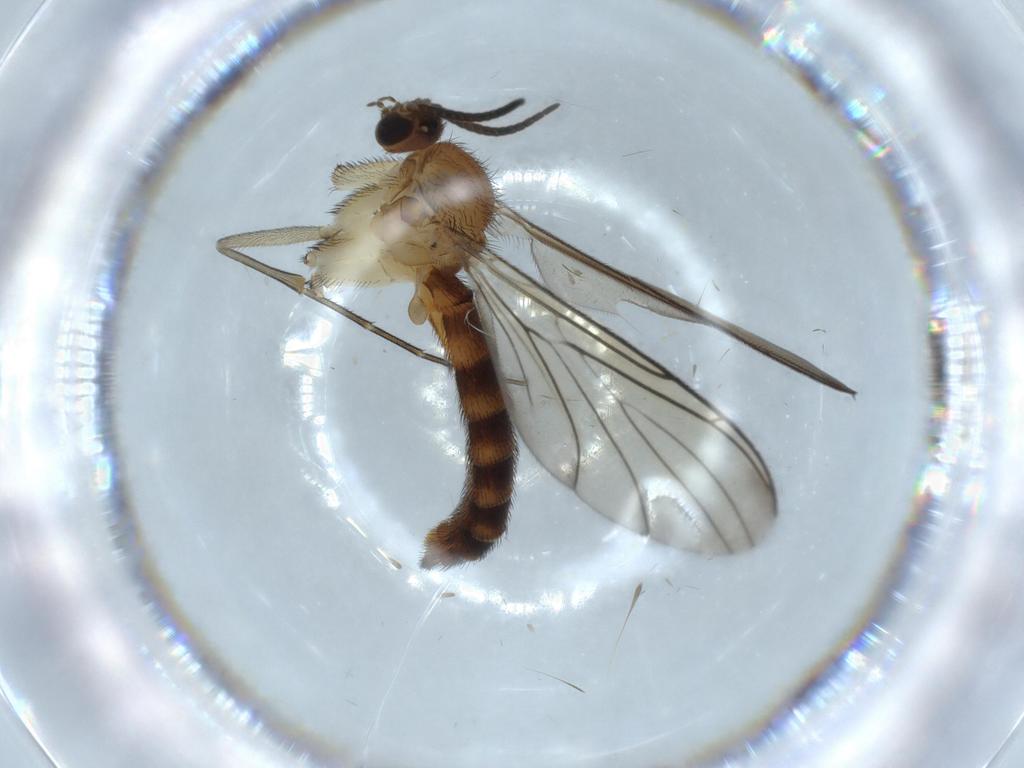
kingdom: Animalia
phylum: Arthropoda
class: Insecta
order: Diptera
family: Keroplatidae
